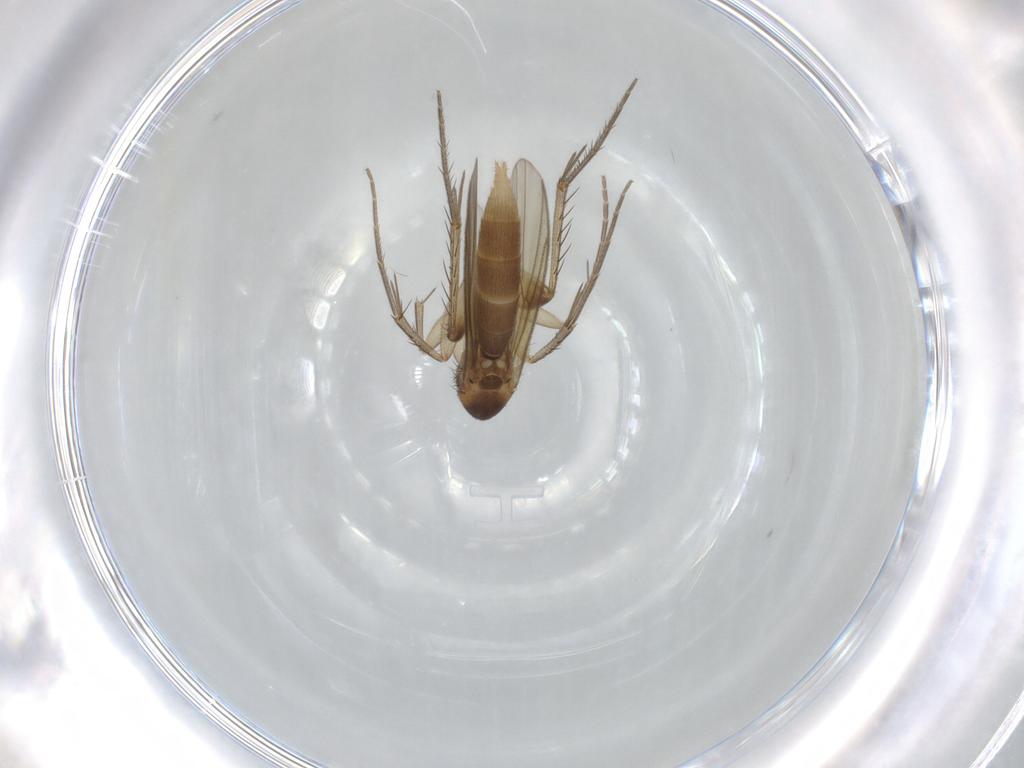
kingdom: Animalia
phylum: Arthropoda
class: Insecta
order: Diptera
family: Mycetophilidae
